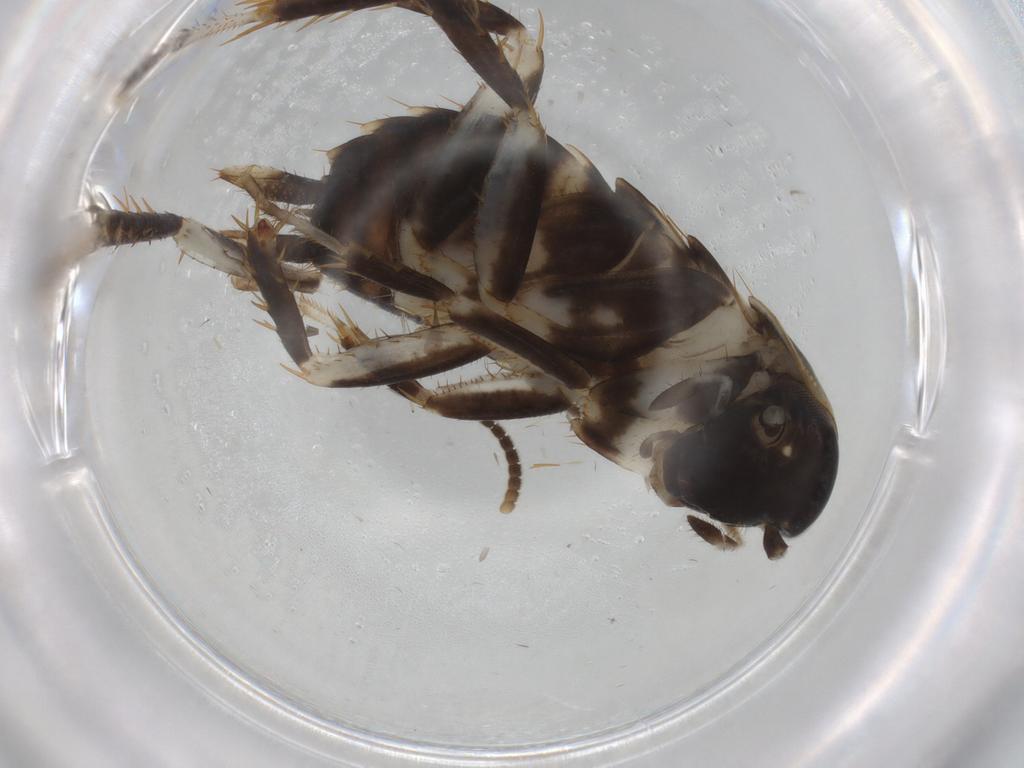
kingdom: Animalia
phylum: Arthropoda
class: Insecta
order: Blattodea
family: Ectobiidae
